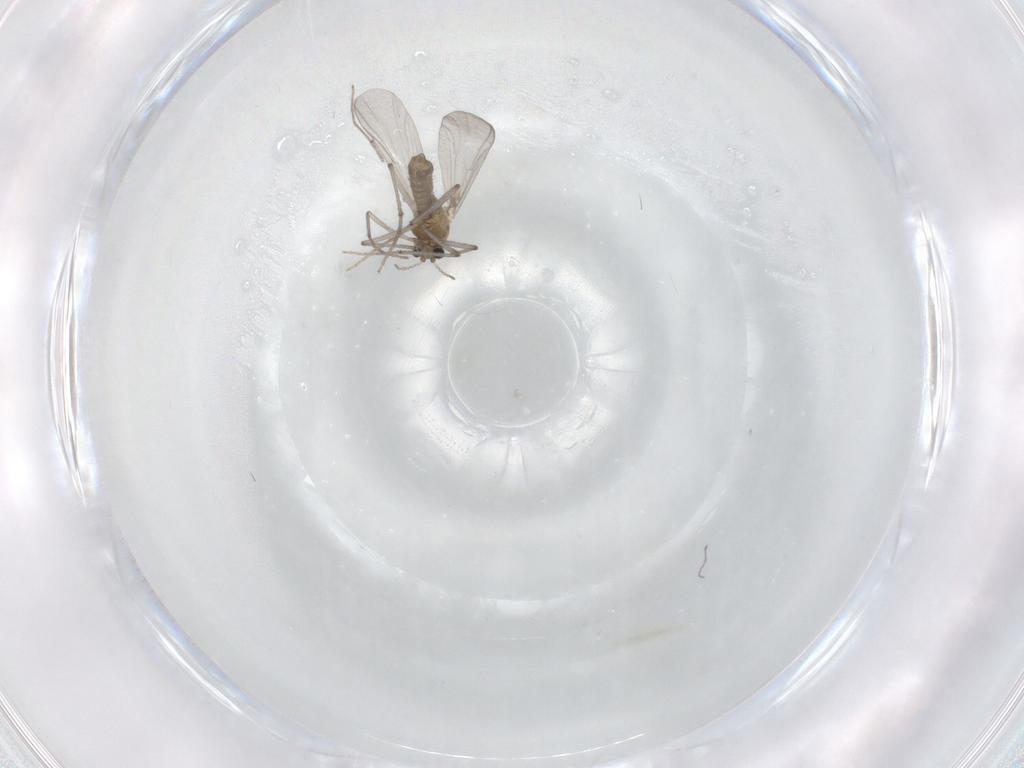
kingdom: Animalia
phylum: Arthropoda
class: Insecta
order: Diptera
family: Chironomidae
